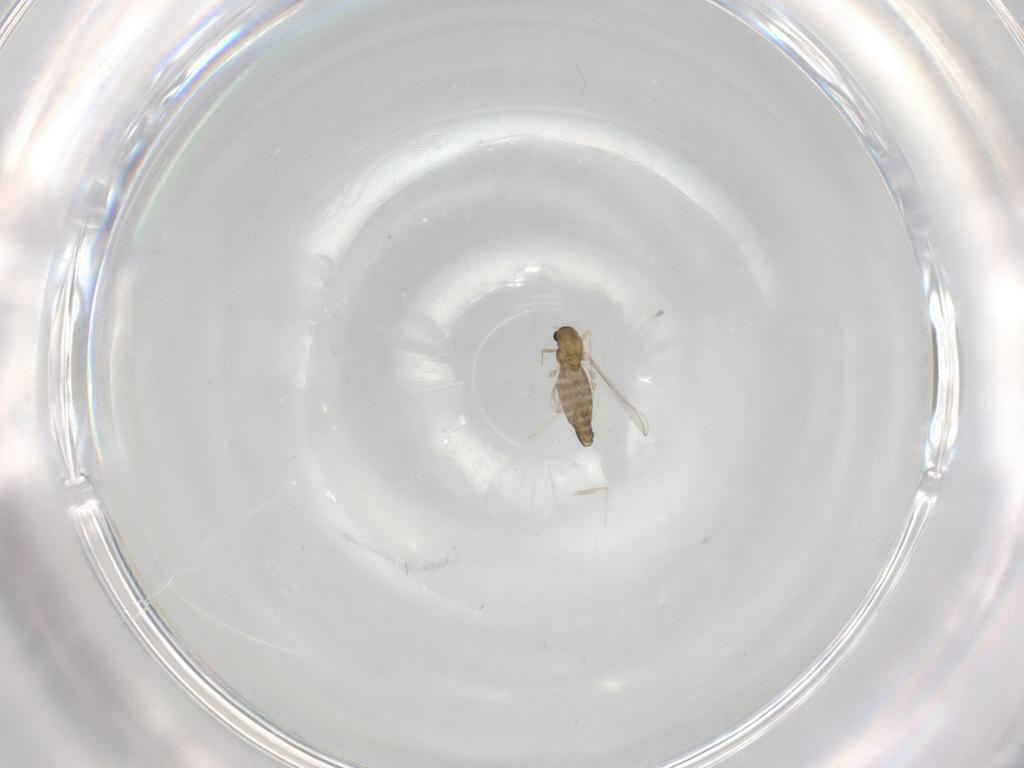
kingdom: Animalia
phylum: Arthropoda
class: Insecta
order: Diptera
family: Chironomidae
